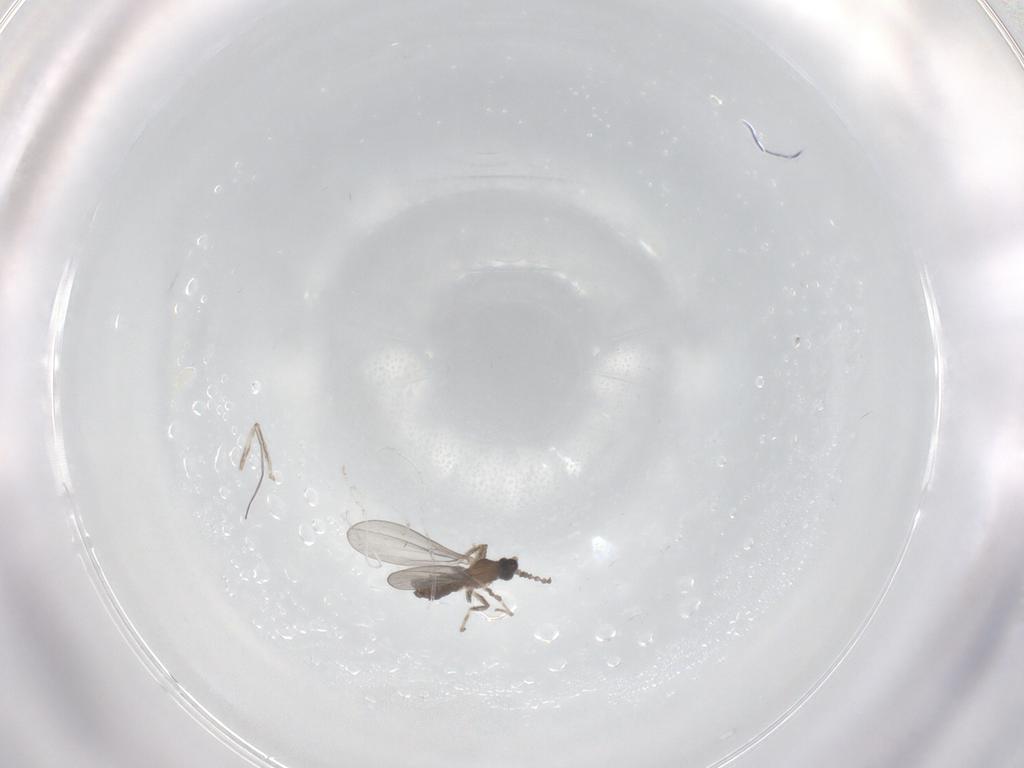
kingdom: Animalia
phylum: Arthropoda
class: Insecta
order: Diptera
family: Cecidomyiidae
